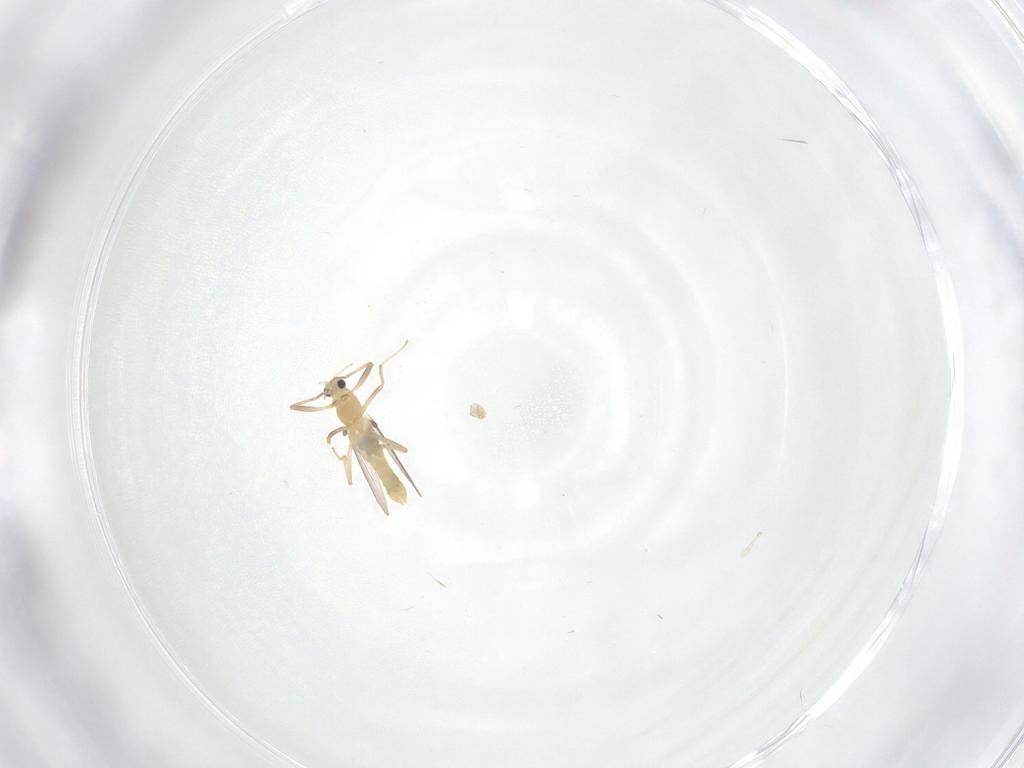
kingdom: Animalia
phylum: Arthropoda
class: Insecta
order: Diptera
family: Cecidomyiidae
